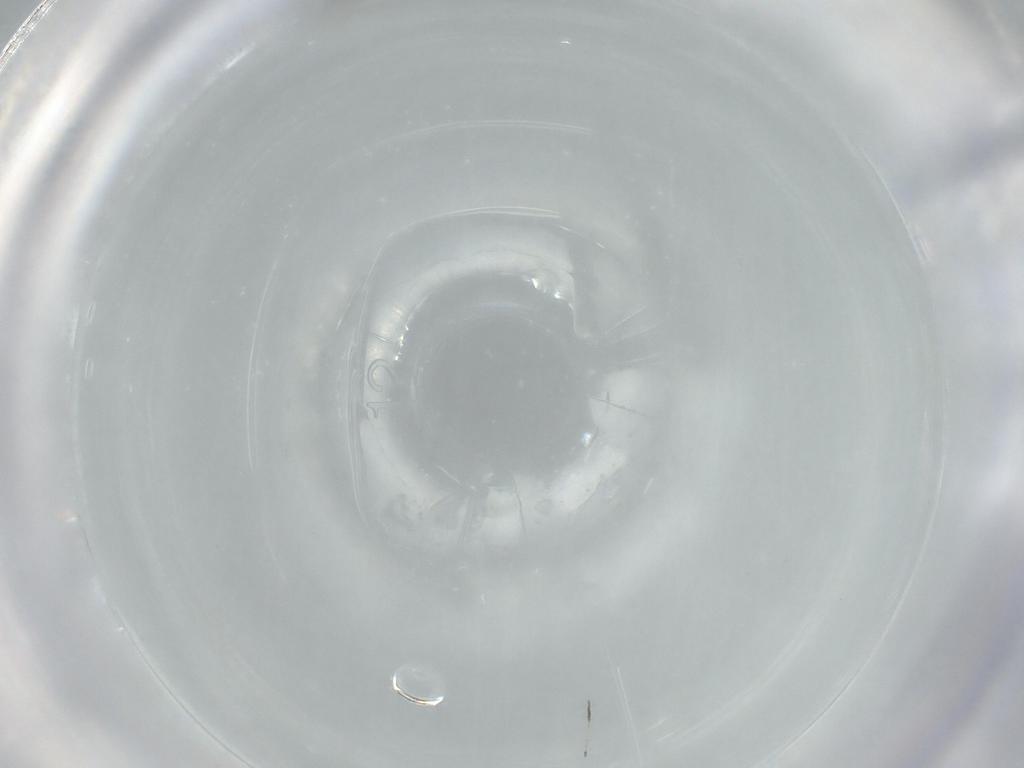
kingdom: Animalia
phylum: Arthropoda
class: Insecta
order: Diptera
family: Cecidomyiidae
